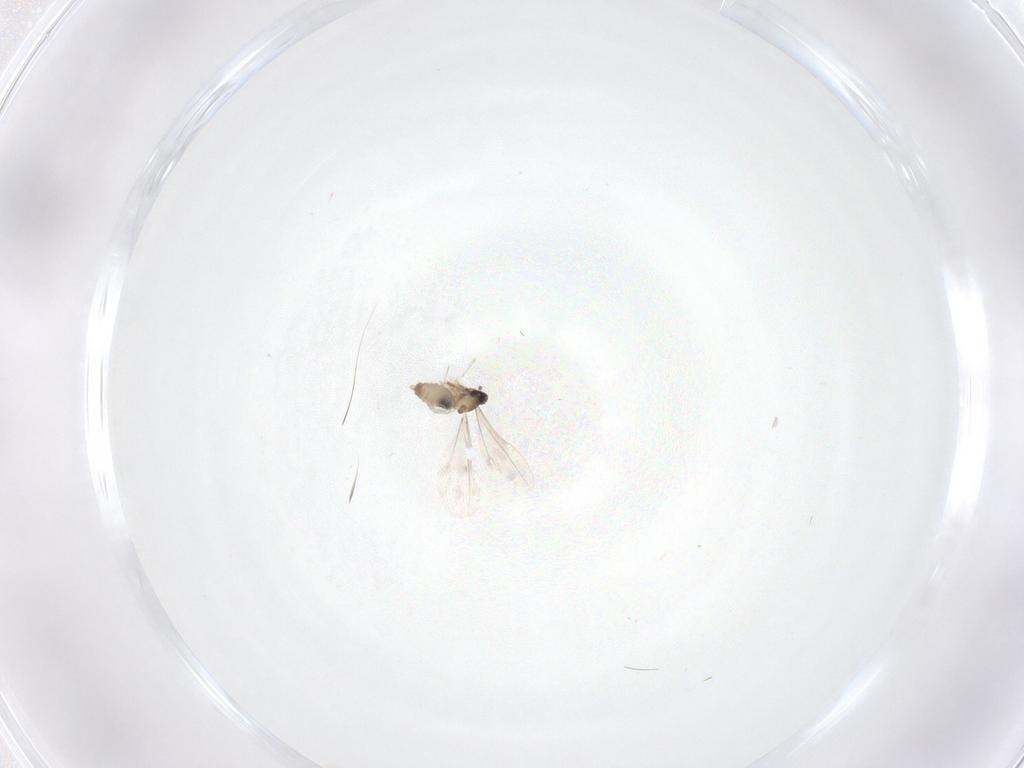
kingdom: Animalia
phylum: Arthropoda
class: Insecta
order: Diptera
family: Cecidomyiidae
